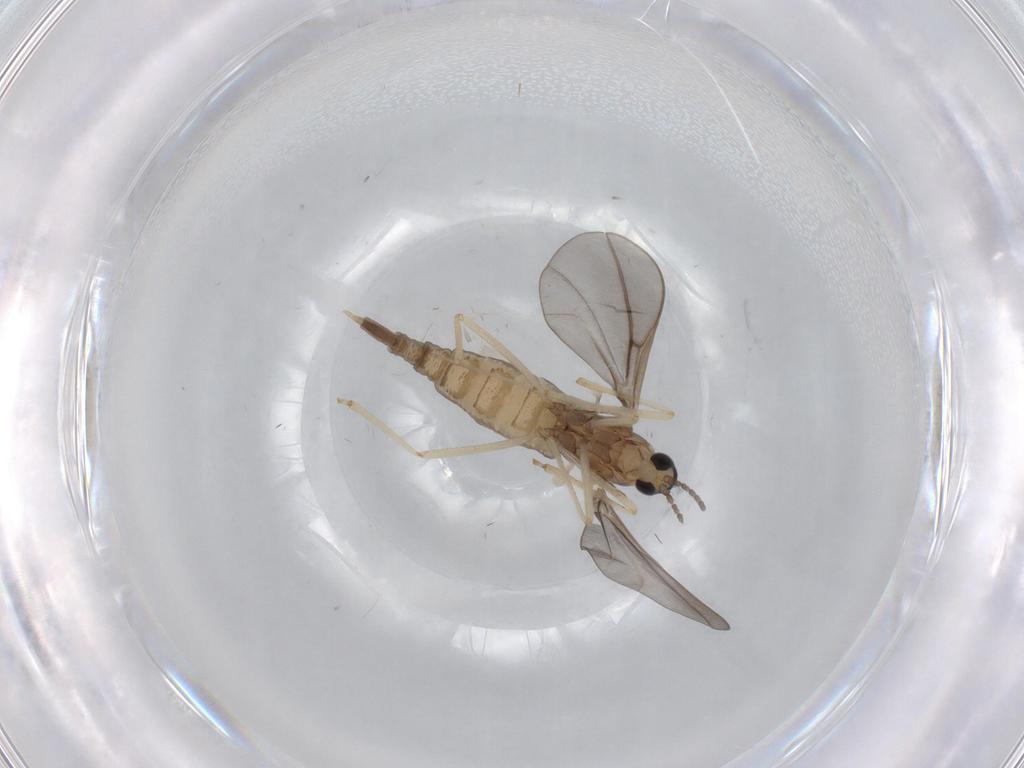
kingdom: Animalia
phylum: Arthropoda
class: Insecta
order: Diptera
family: Cecidomyiidae
